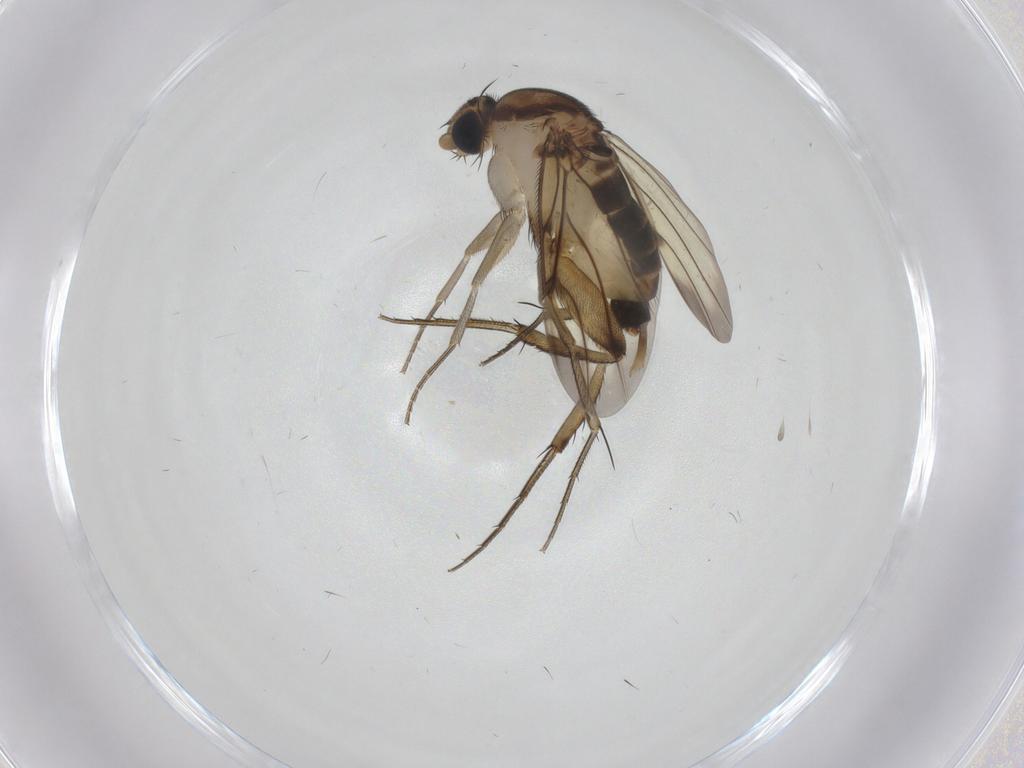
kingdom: Animalia
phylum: Arthropoda
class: Insecta
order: Diptera
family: Phoridae
